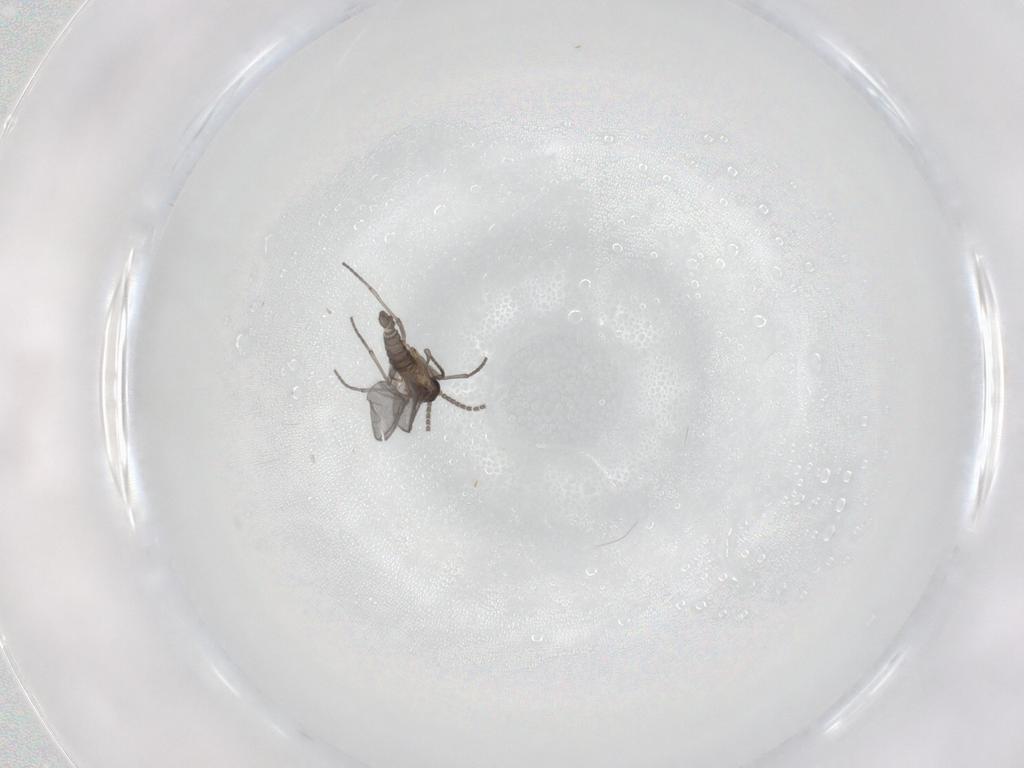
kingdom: Animalia
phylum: Arthropoda
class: Insecta
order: Diptera
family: Sciaridae
